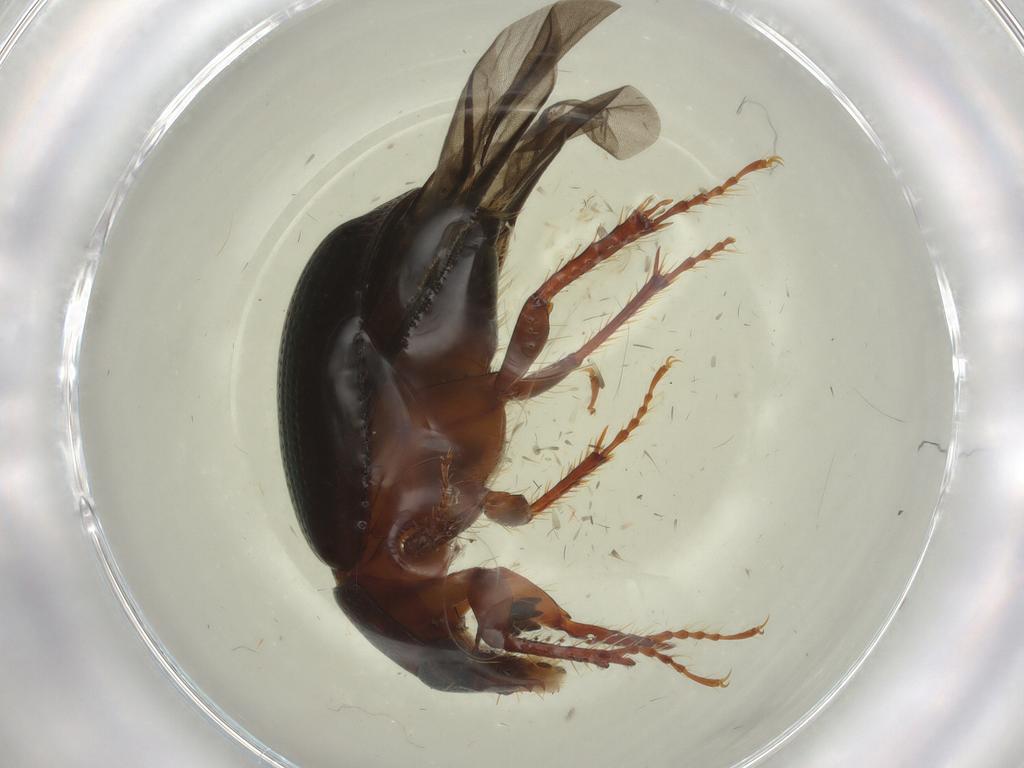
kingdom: Animalia
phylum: Arthropoda
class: Insecta
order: Coleoptera
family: Hybosoridae
